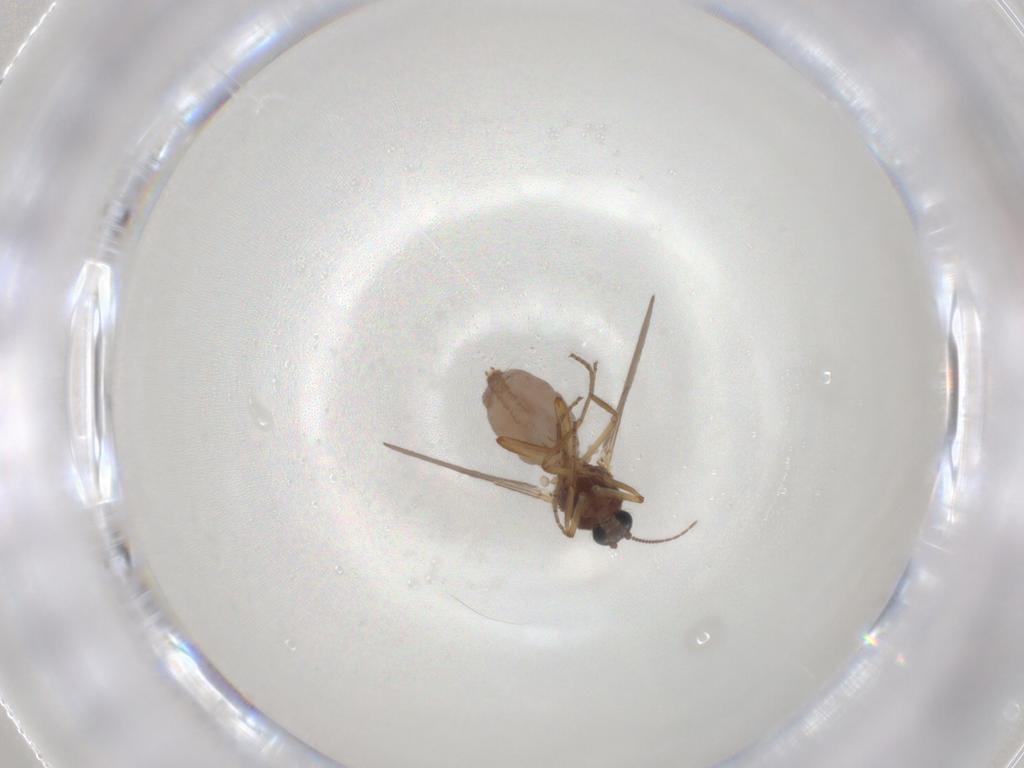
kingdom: Animalia
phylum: Arthropoda
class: Insecta
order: Diptera
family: Ceratopogonidae
